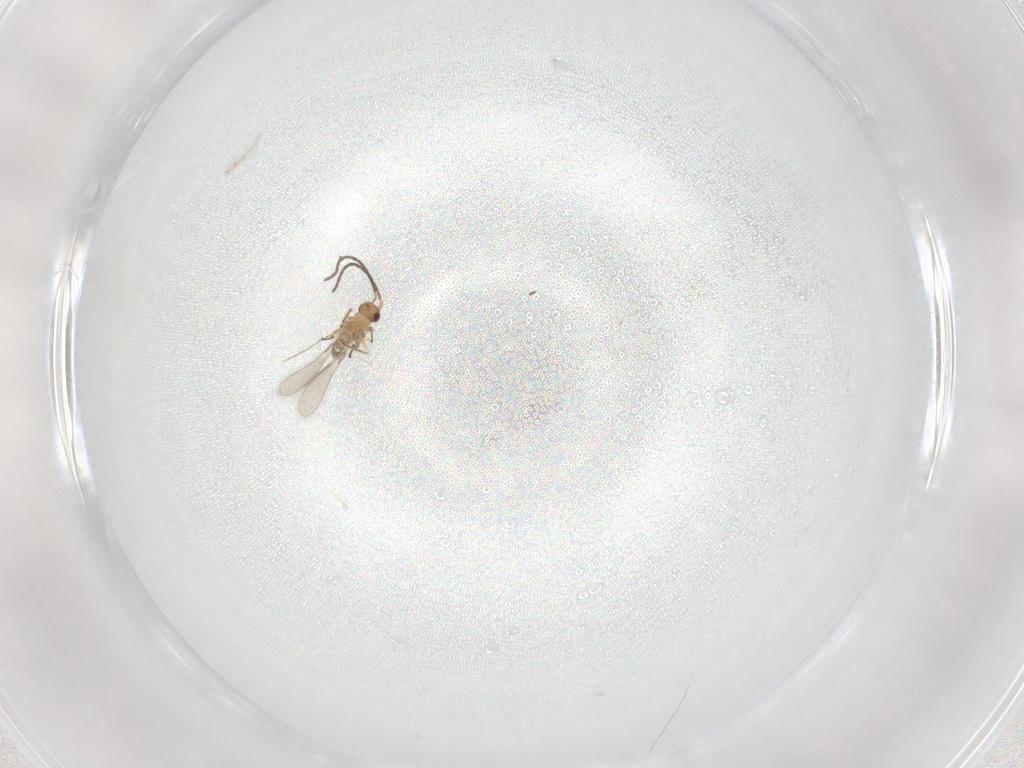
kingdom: Animalia
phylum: Arthropoda
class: Insecta
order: Hymenoptera
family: Mymaridae
